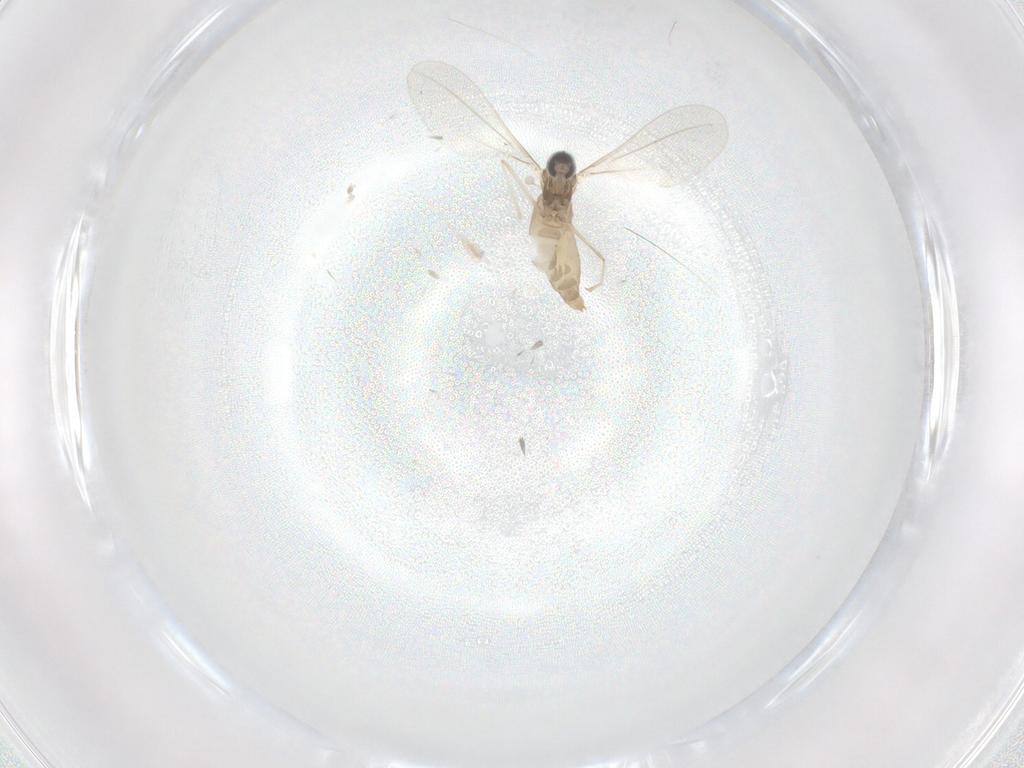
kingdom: Animalia
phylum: Arthropoda
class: Insecta
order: Diptera
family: Cecidomyiidae
